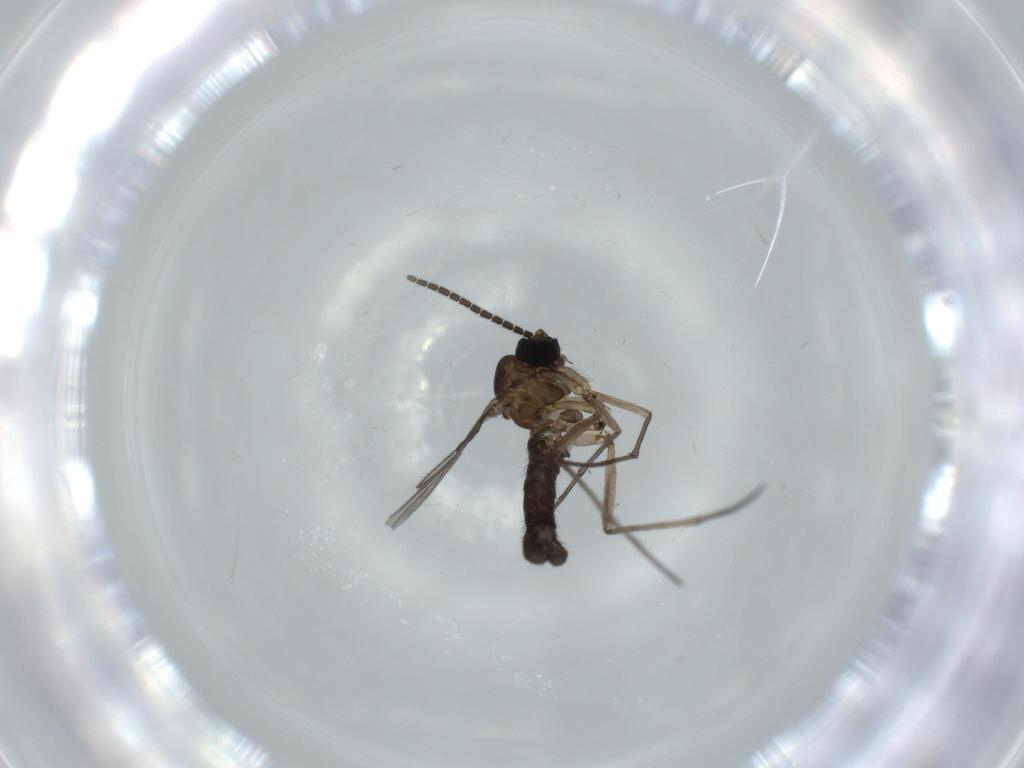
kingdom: Animalia
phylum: Arthropoda
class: Insecta
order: Diptera
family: Sciaridae
